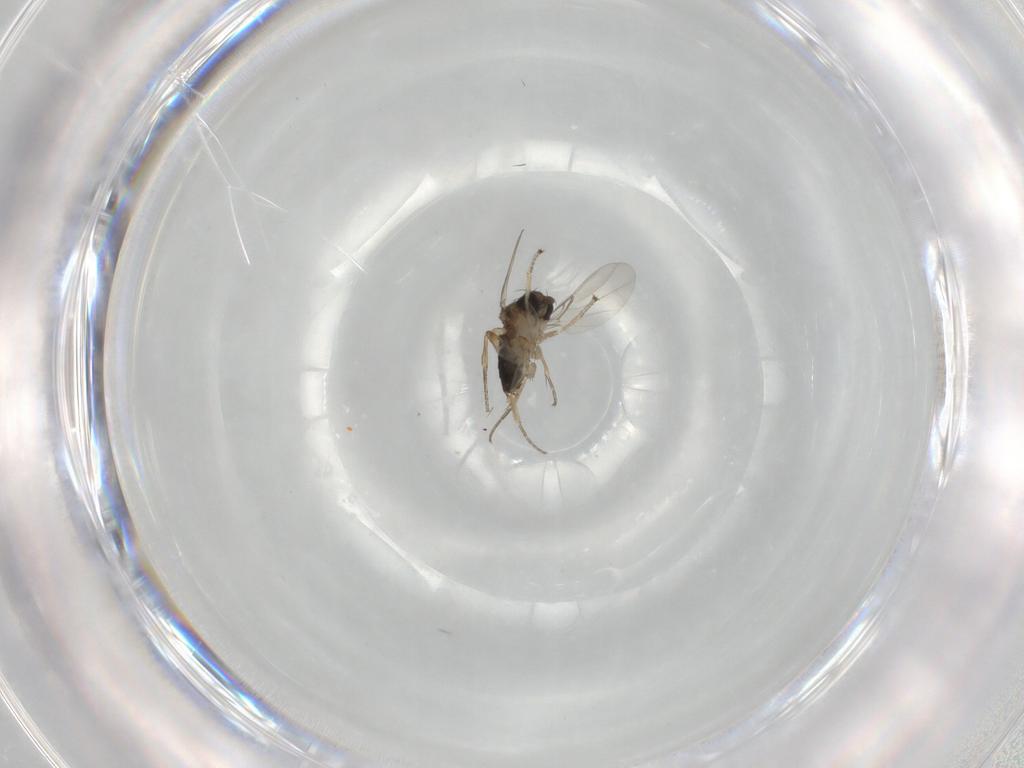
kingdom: Animalia
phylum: Arthropoda
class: Insecta
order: Diptera
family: Phoridae
